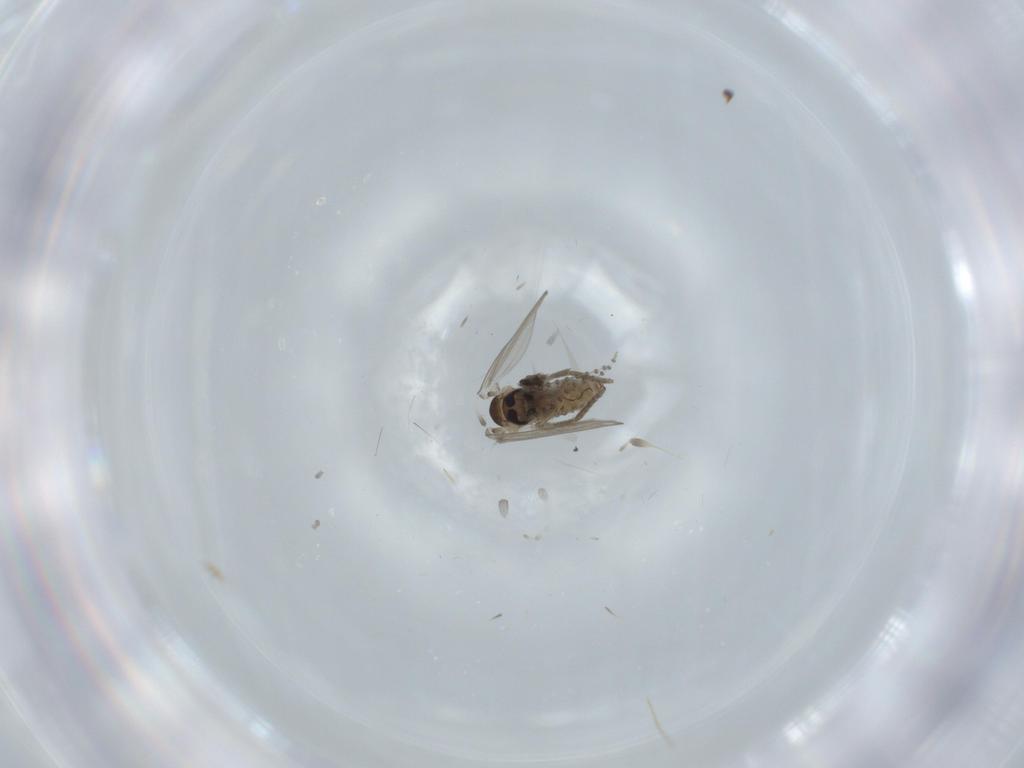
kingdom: Animalia
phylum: Arthropoda
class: Insecta
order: Diptera
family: Psychodidae
